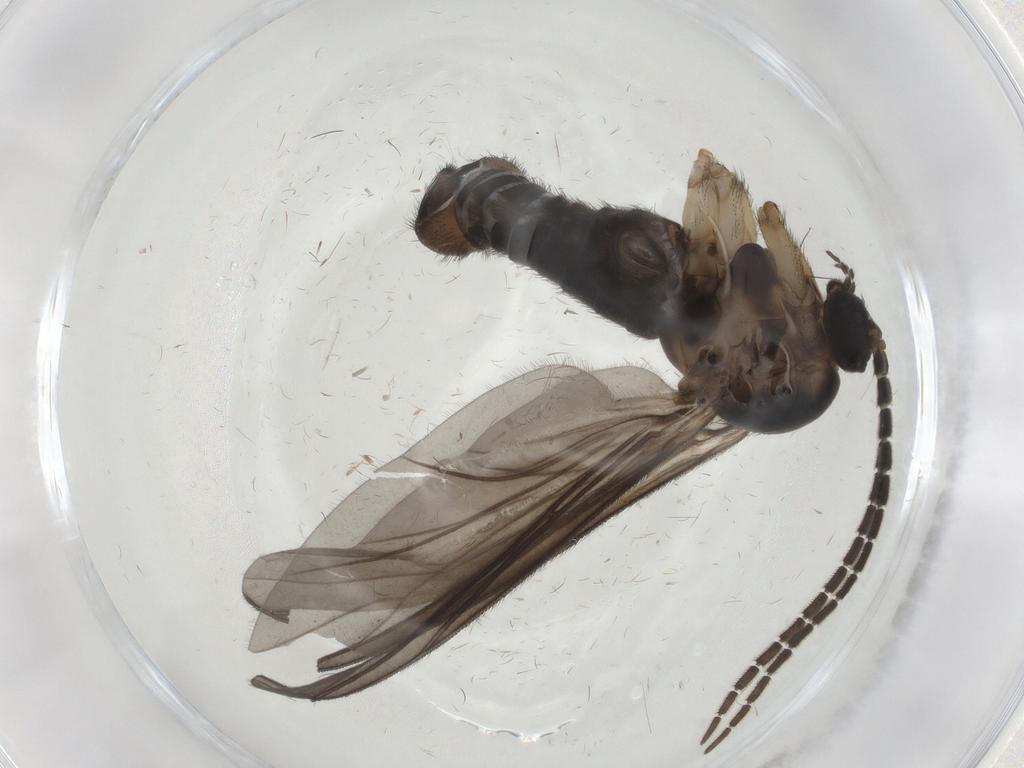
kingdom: Animalia
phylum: Arthropoda
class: Insecta
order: Diptera
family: Sciaridae
